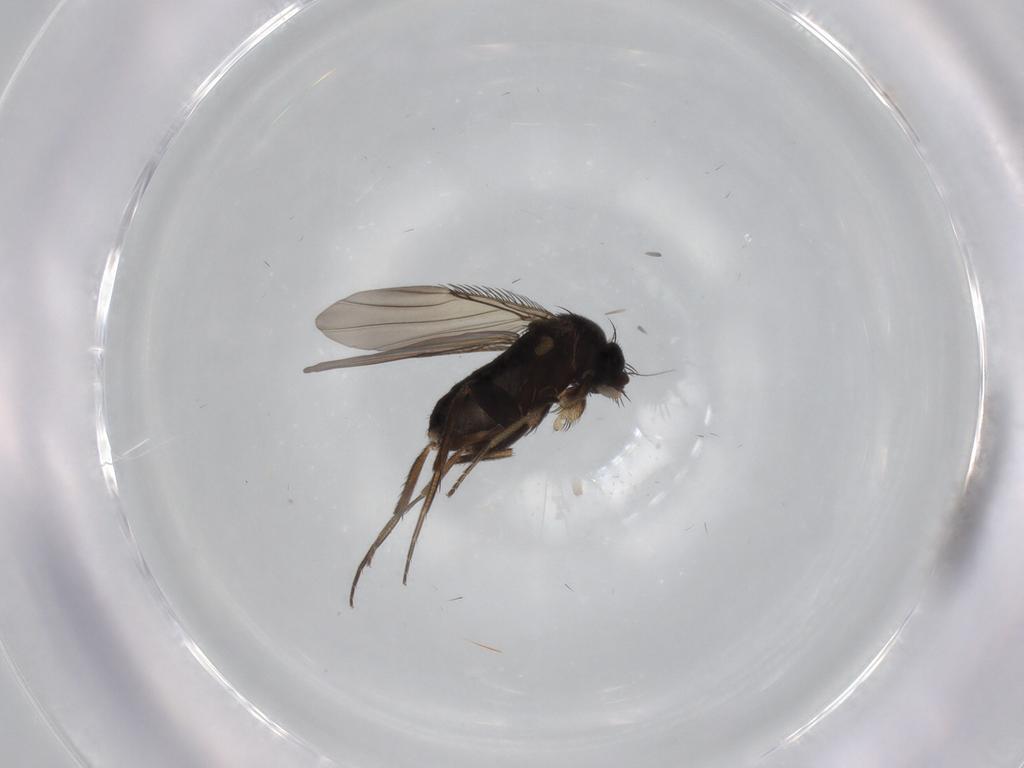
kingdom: Animalia
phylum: Arthropoda
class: Insecta
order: Diptera
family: Phoridae
